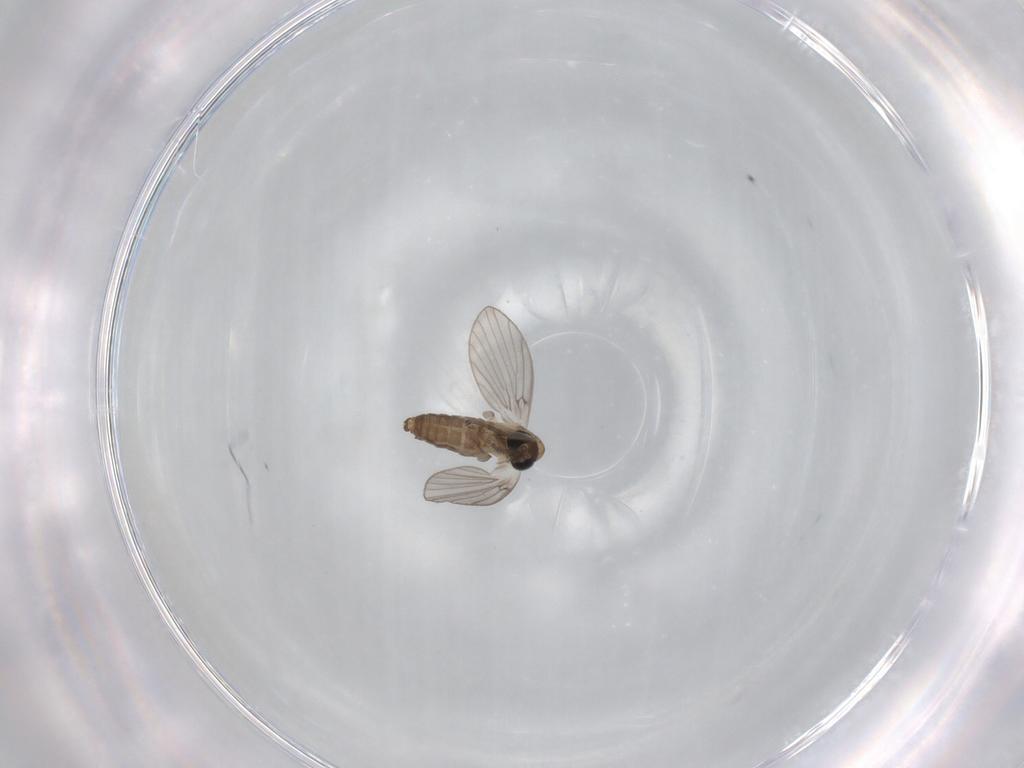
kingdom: Animalia
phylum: Arthropoda
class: Insecta
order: Diptera
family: Psychodidae
